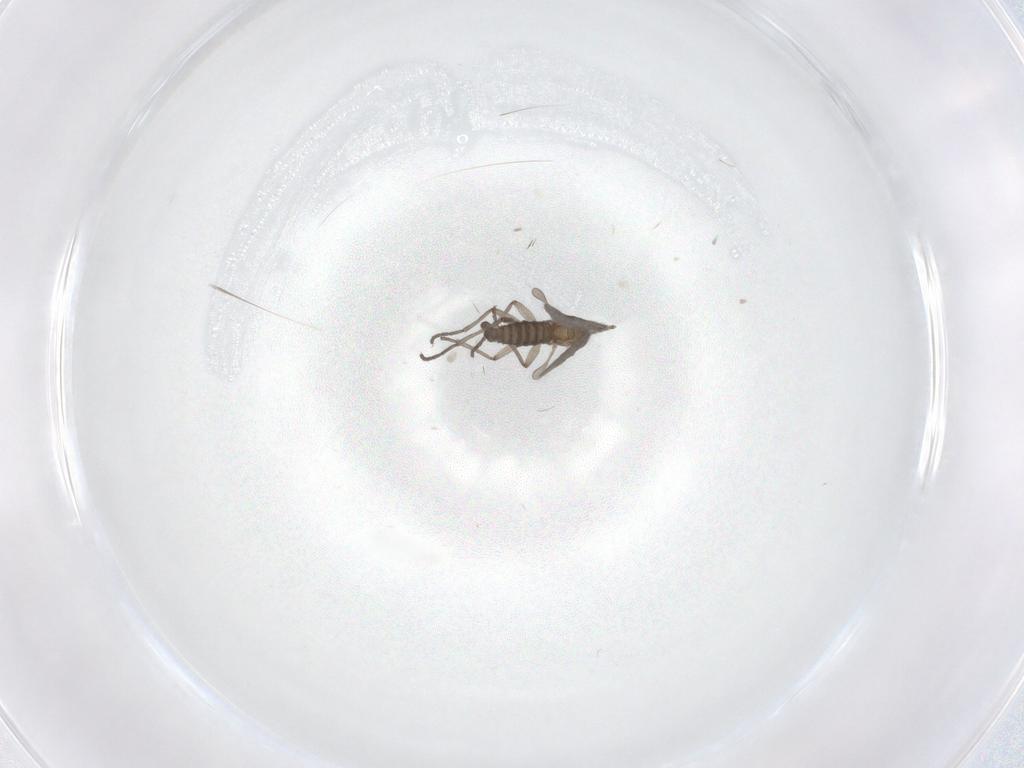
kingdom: Animalia
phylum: Arthropoda
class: Insecta
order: Diptera
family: Sciaridae
